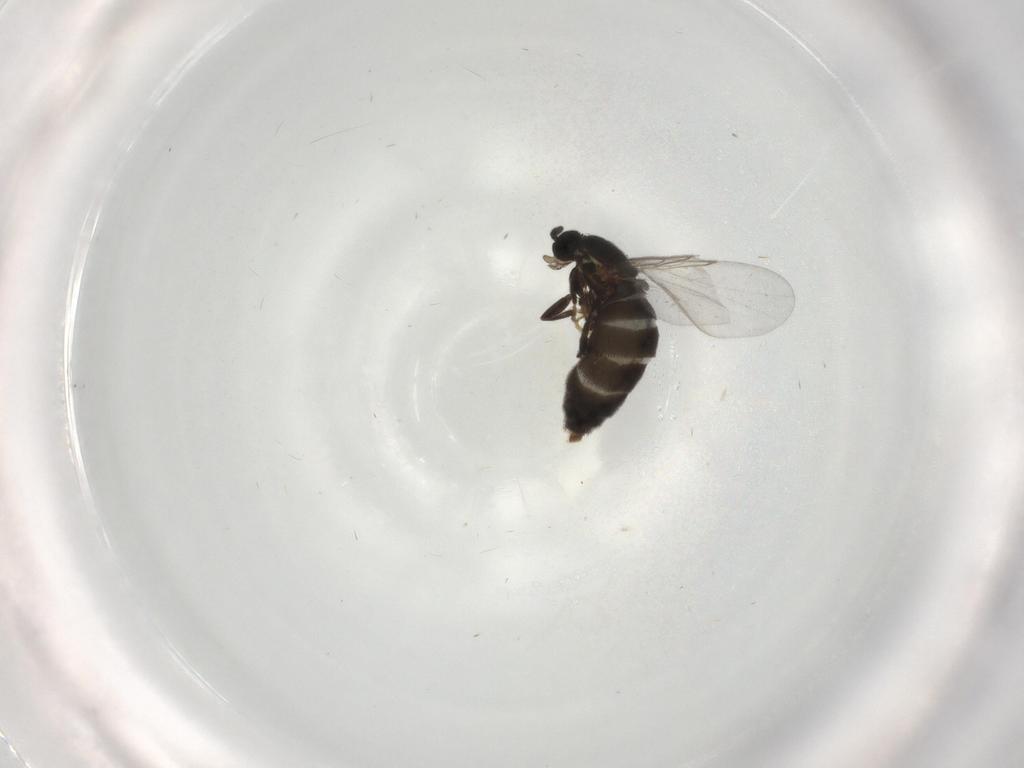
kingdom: Animalia
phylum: Arthropoda
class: Insecta
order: Diptera
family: Scatopsidae
